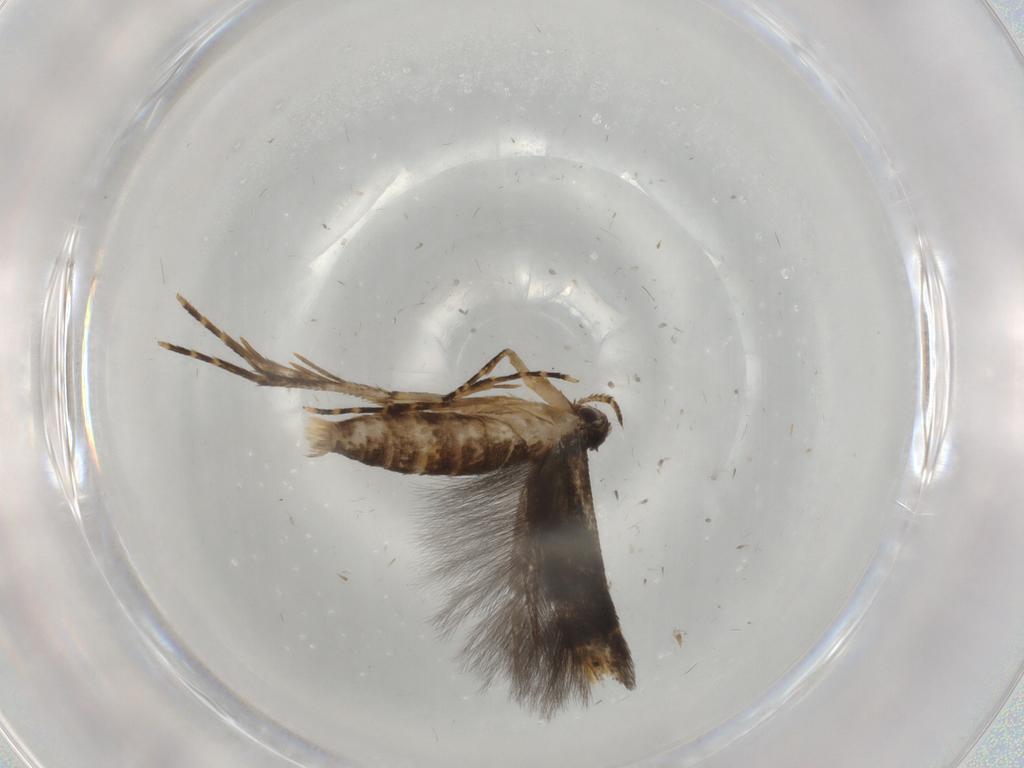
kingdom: Animalia
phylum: Arthropoda
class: Insecta
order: Lepidoptera
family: Cosmopterigidae
